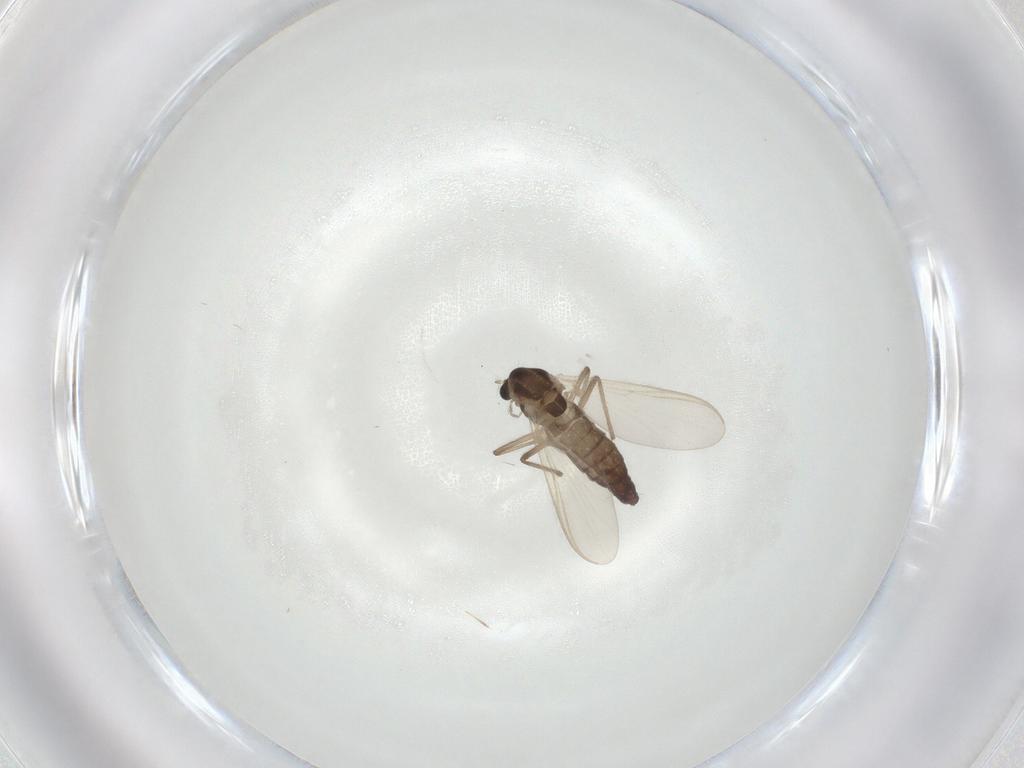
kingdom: Animalia
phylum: Arthropoda
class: Insecta
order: Diptera
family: Chironomidae
